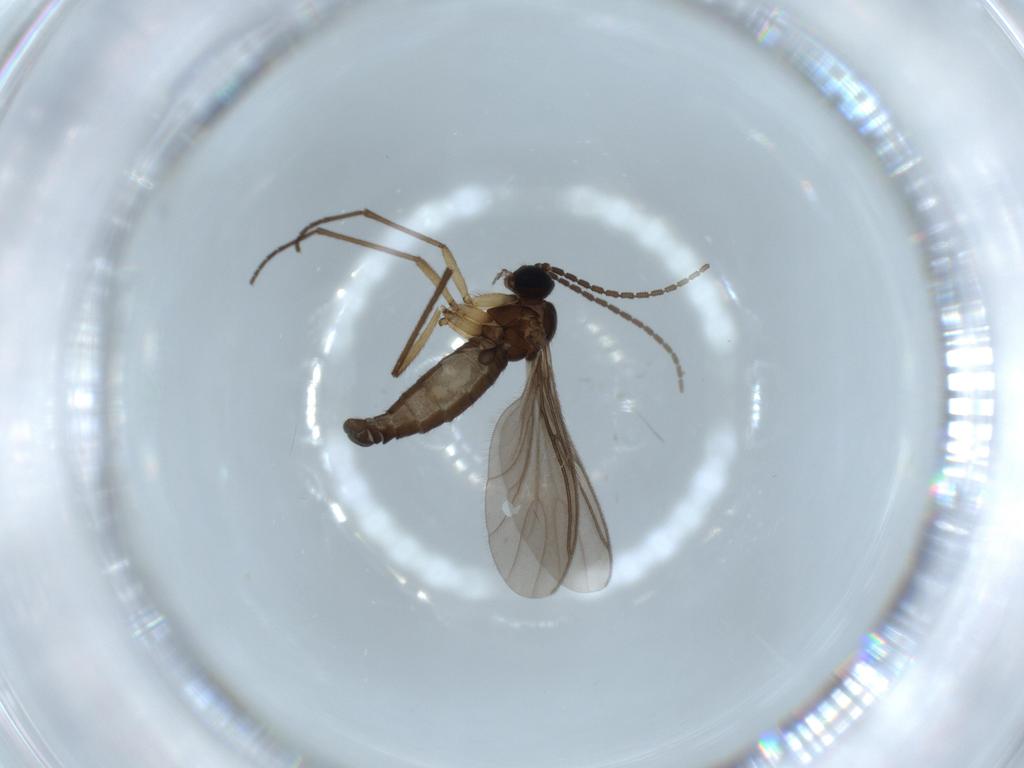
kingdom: Animalia
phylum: Arthropoda
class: Insecta
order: Diptera
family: Sciaridae
